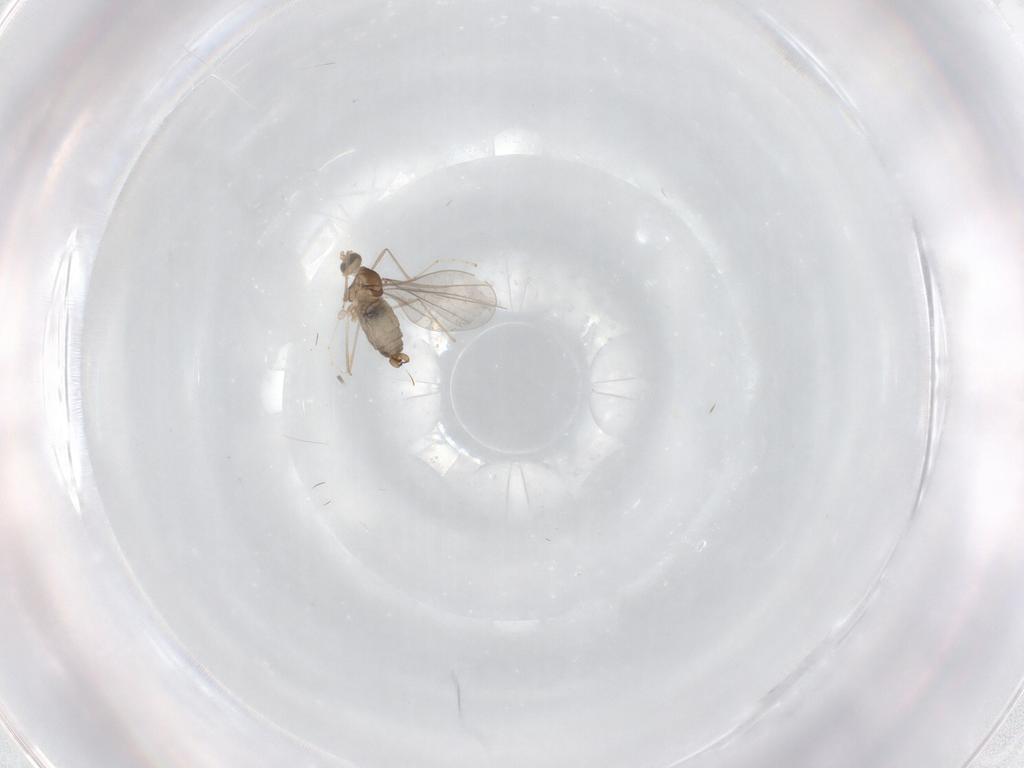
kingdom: Animalia
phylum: Arthropoda
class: Insecta
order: Diptera
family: Cecidomyiidae
